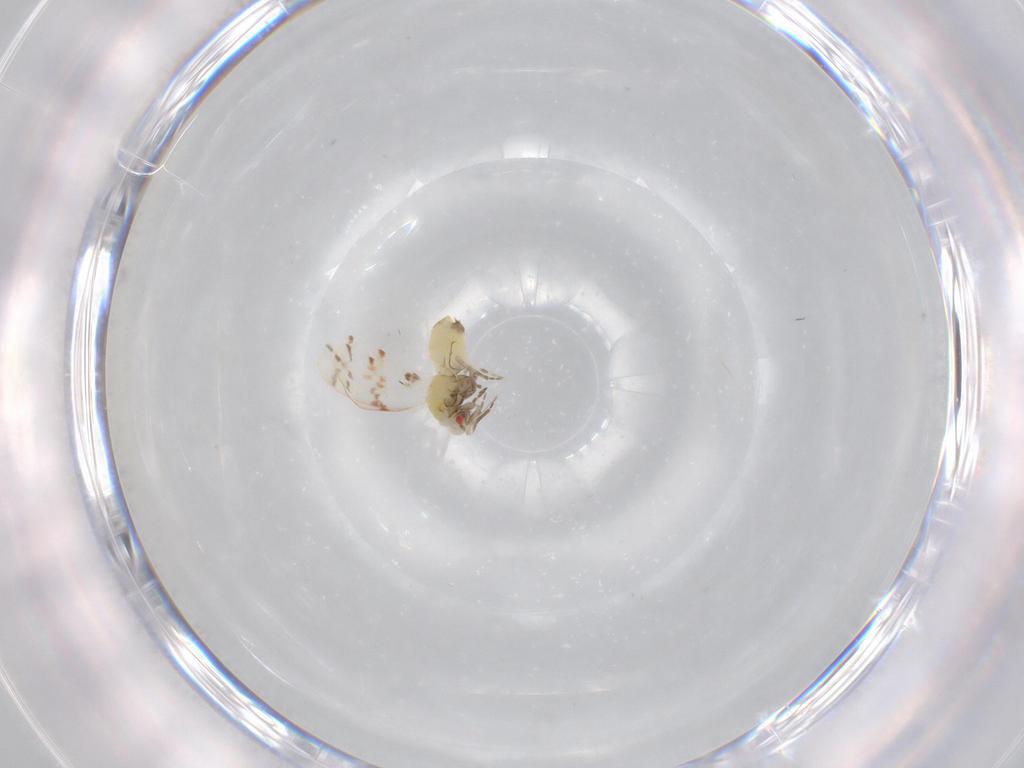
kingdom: Animalia
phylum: Arthropoda
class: Insecta
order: Hemiptera
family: Aleyrodidae
